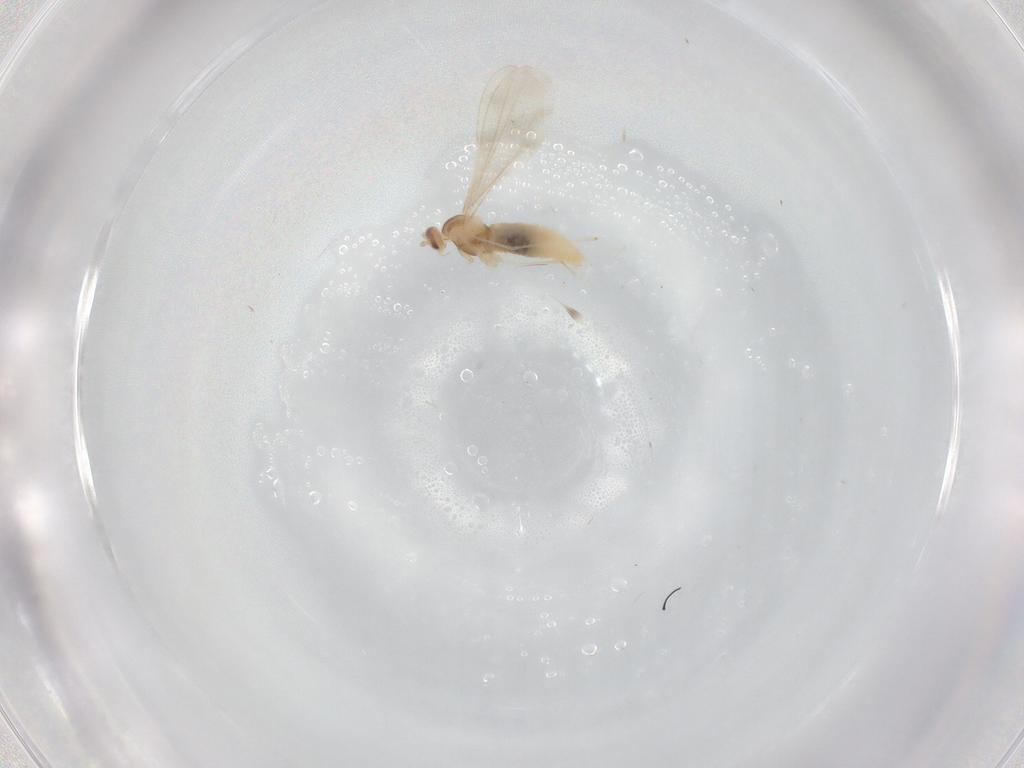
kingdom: Animalia
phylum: Arthropoda
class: Insecta
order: Diptera
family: Cecidomyiidae
